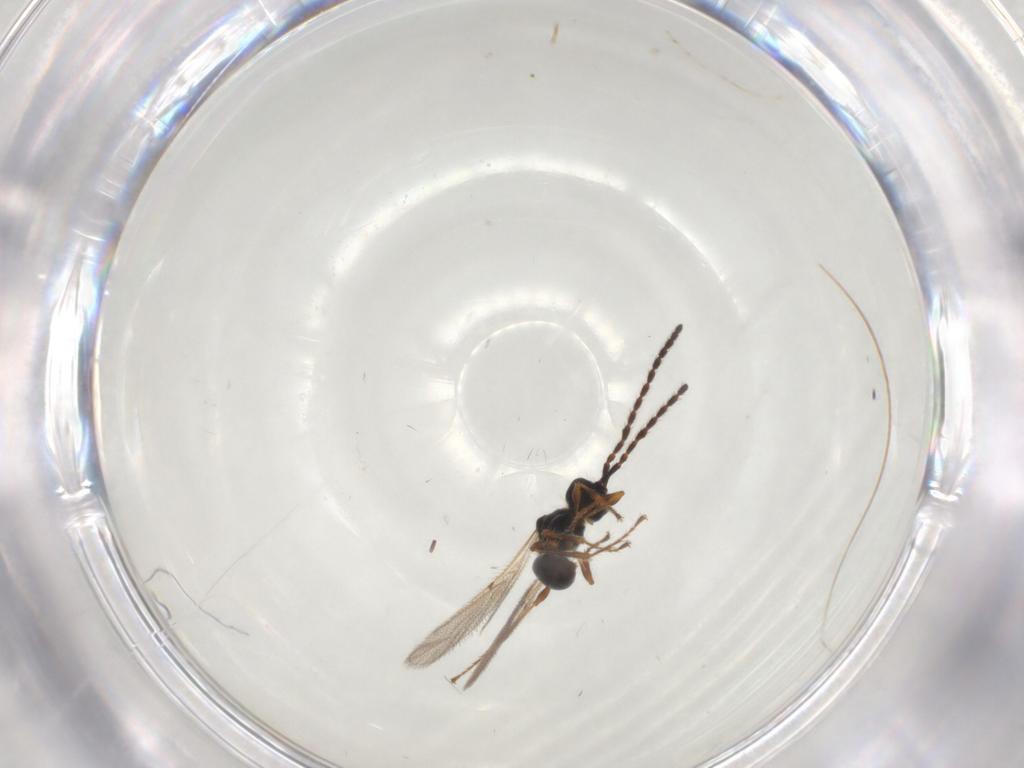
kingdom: Animalia
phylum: Arthropoda
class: Insecta
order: Hymenoptera
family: Diapriidae
